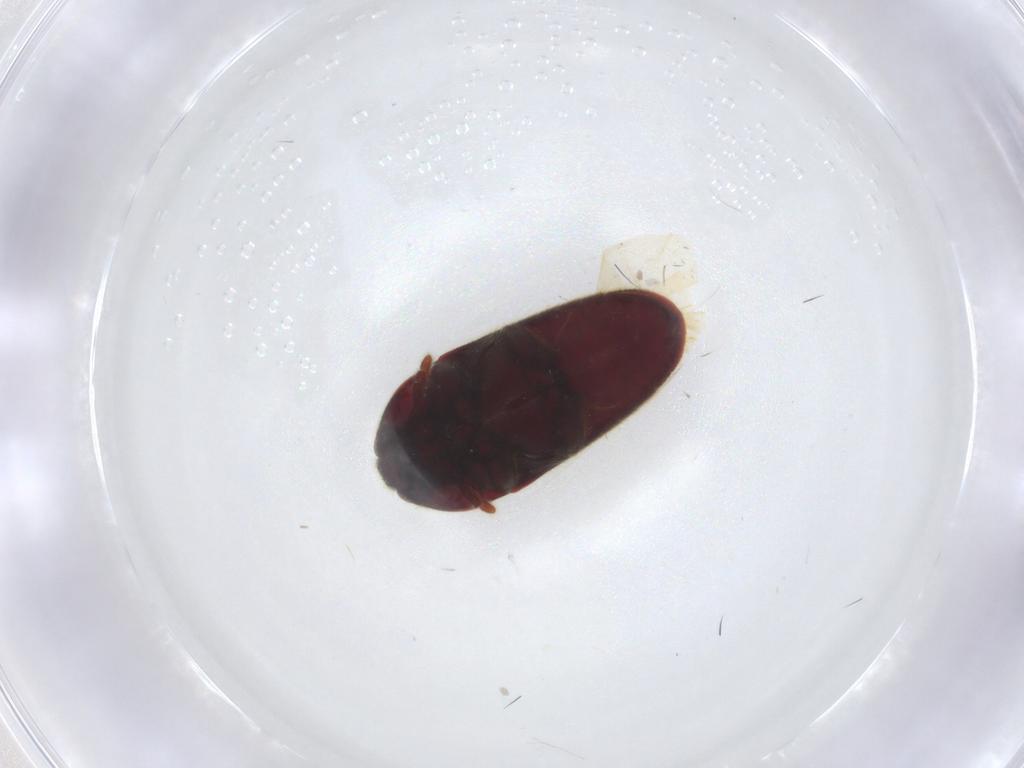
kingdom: Animalia
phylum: Arthropoda
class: Insecta
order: Coleoptera
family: Throscidae
